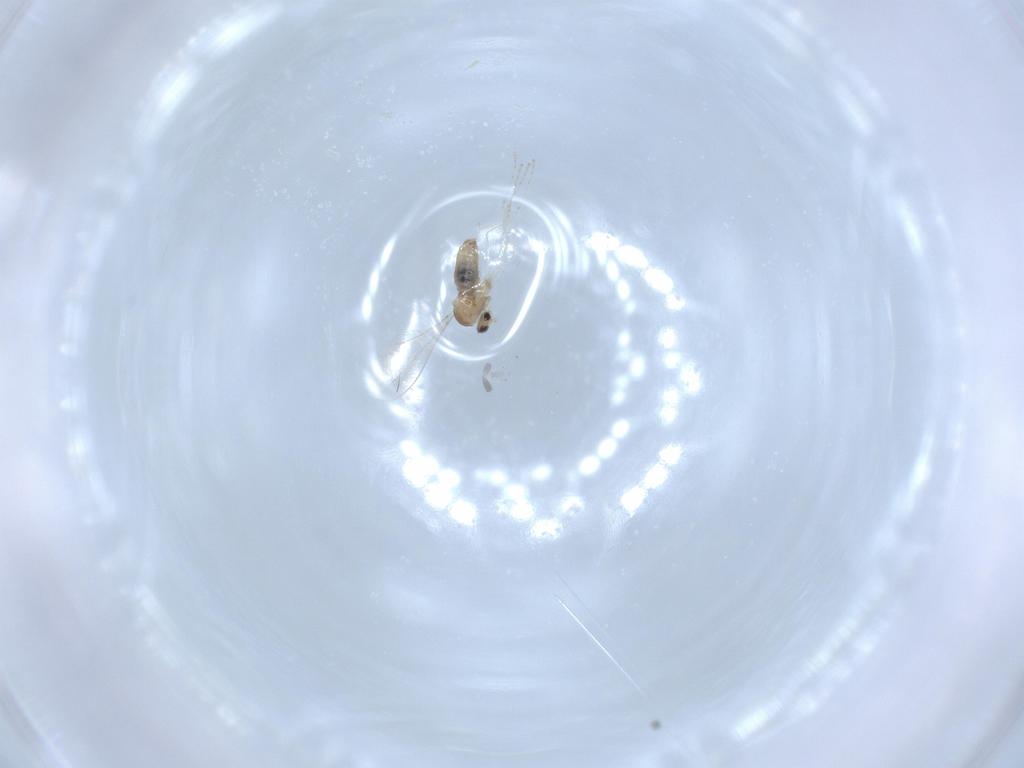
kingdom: Animalia
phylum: Arthropoda
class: Insecta
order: Diptera
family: Cecidomyiidae
